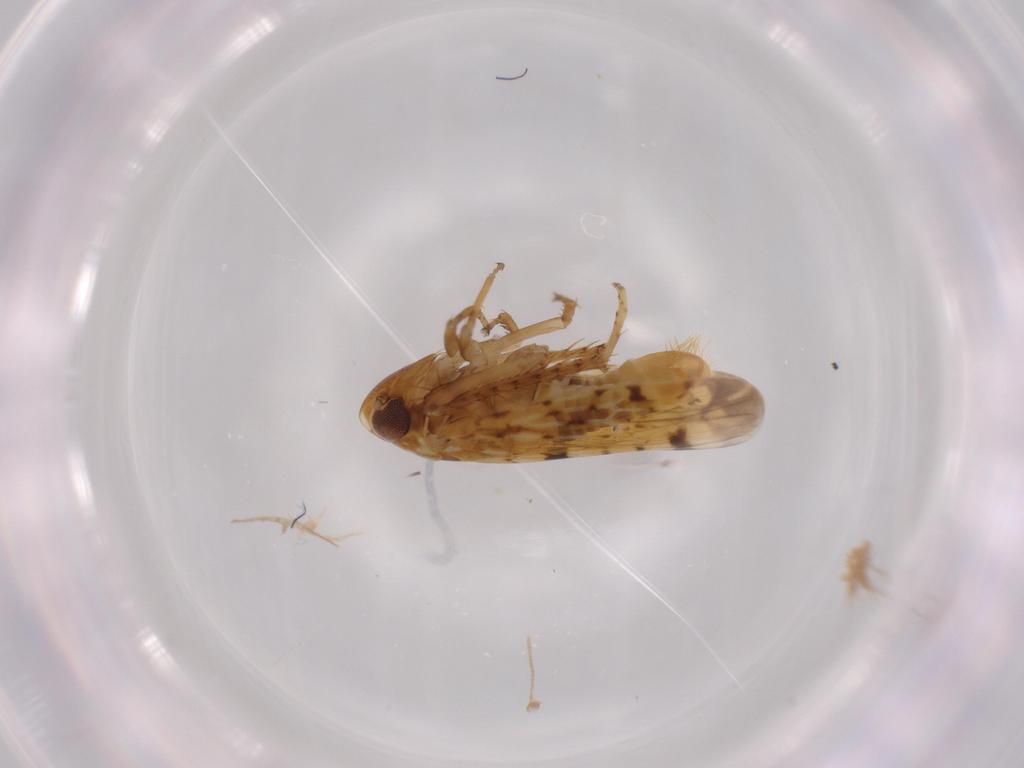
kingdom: Animalia
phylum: Arthropoda
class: Insecta
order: Hemiptera
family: Cicadellidae
